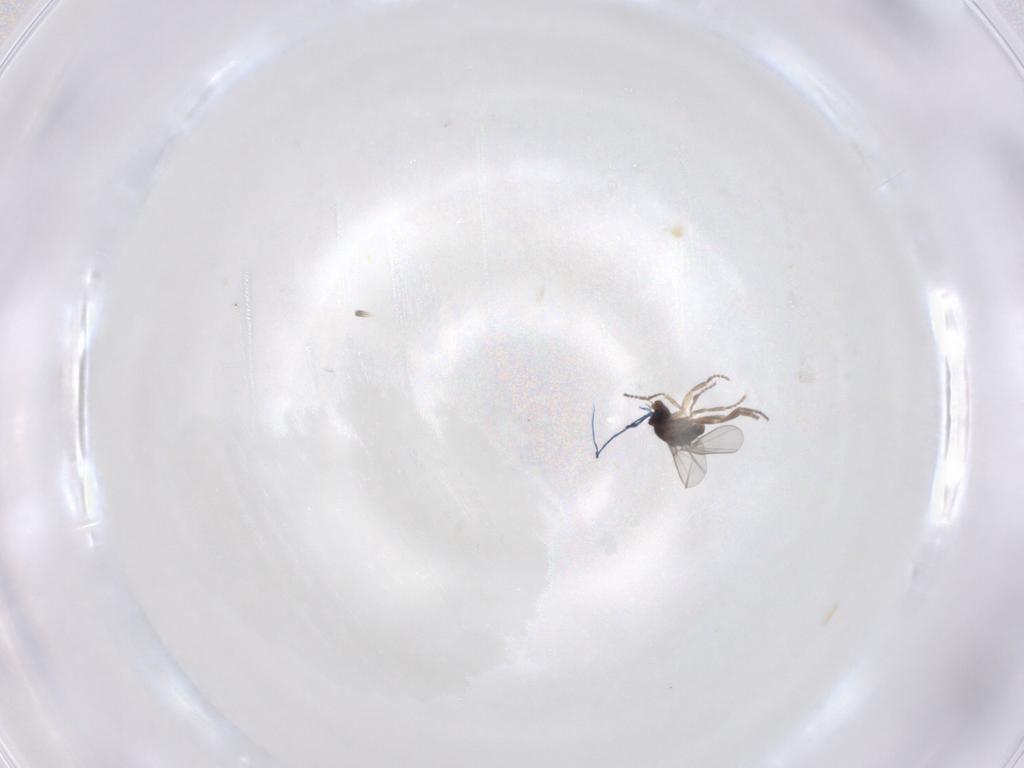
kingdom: Animalia
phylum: Arthropoda
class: Insecta
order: Diptera
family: Phoridae
